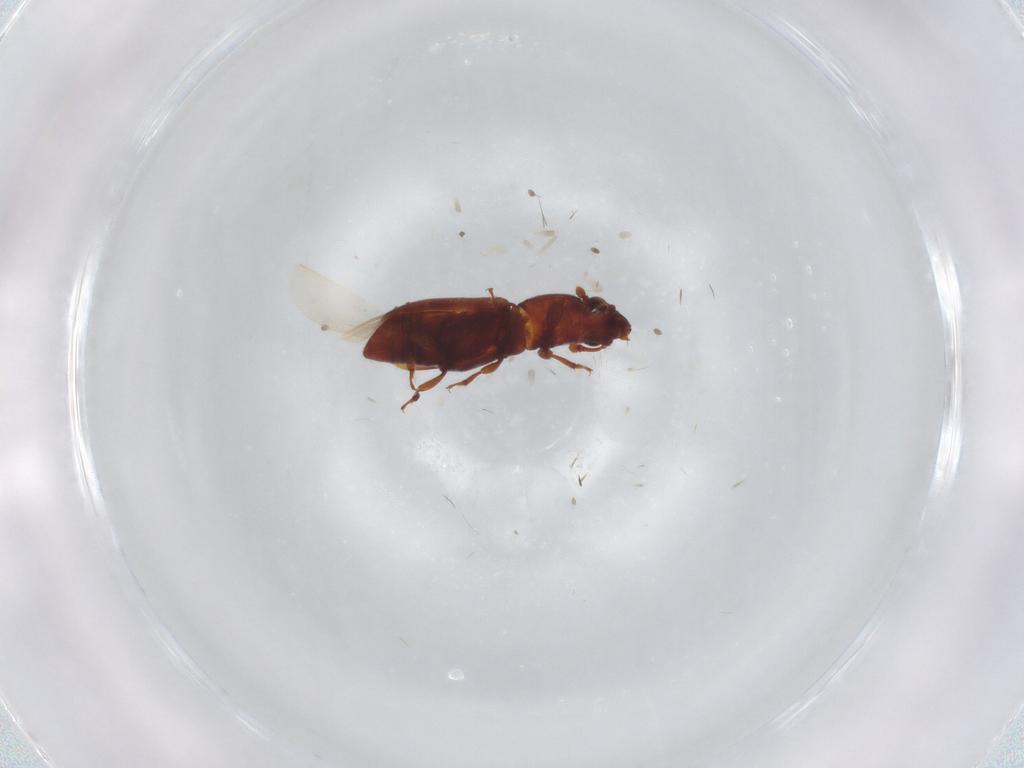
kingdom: Animalia
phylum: Arthropoda
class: Insecta
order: Coleoptera
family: Monotomidae
